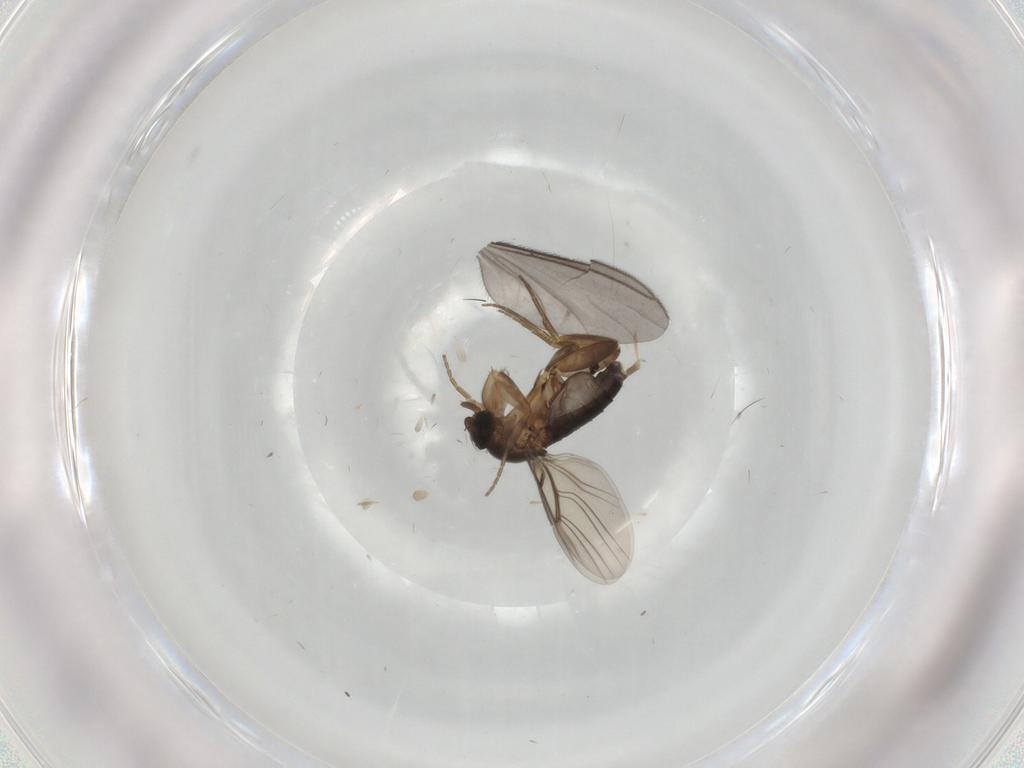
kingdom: Animalia
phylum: Arthropoda
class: Insecta
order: Diptera
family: Phoridae
